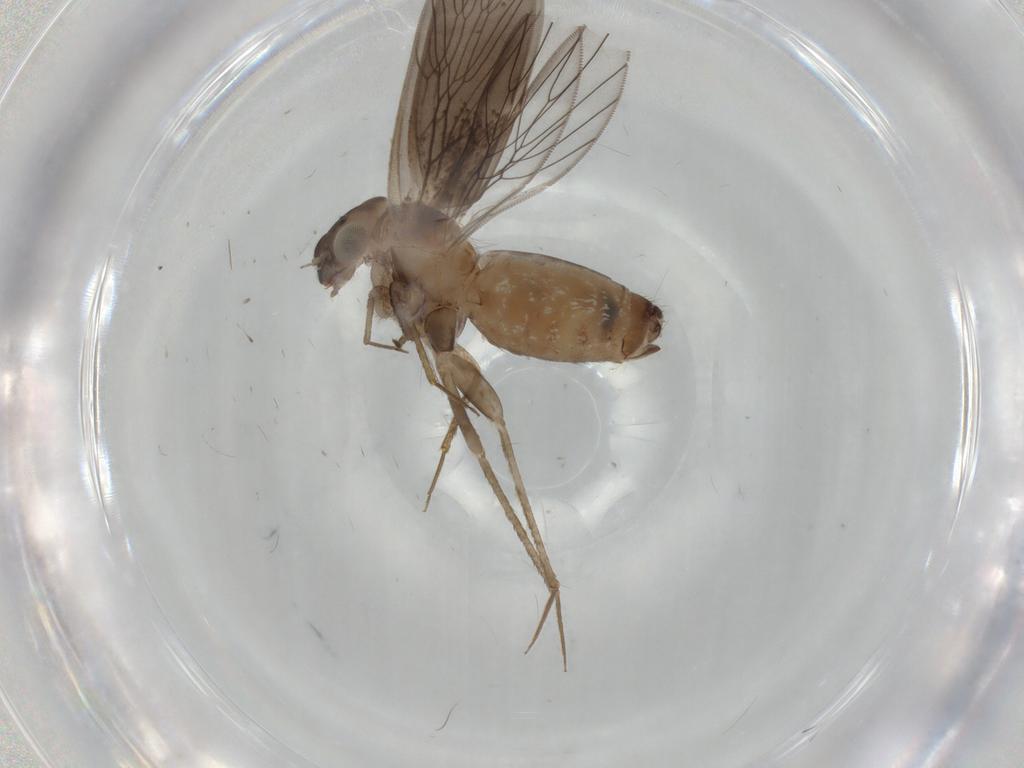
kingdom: Animalia
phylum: Arthropoda
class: Insecta
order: Psocodea
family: Lepidopsocidae
